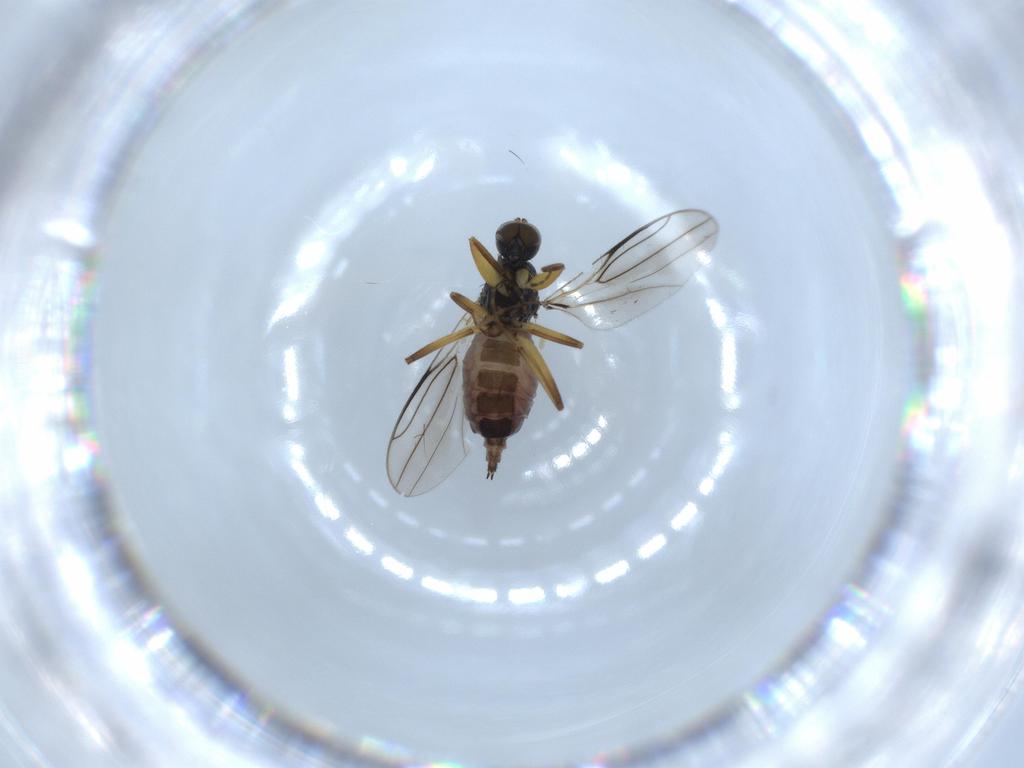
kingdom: Animalia
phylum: Arthropoda
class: Insecta
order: Diptera
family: Hybotidae
